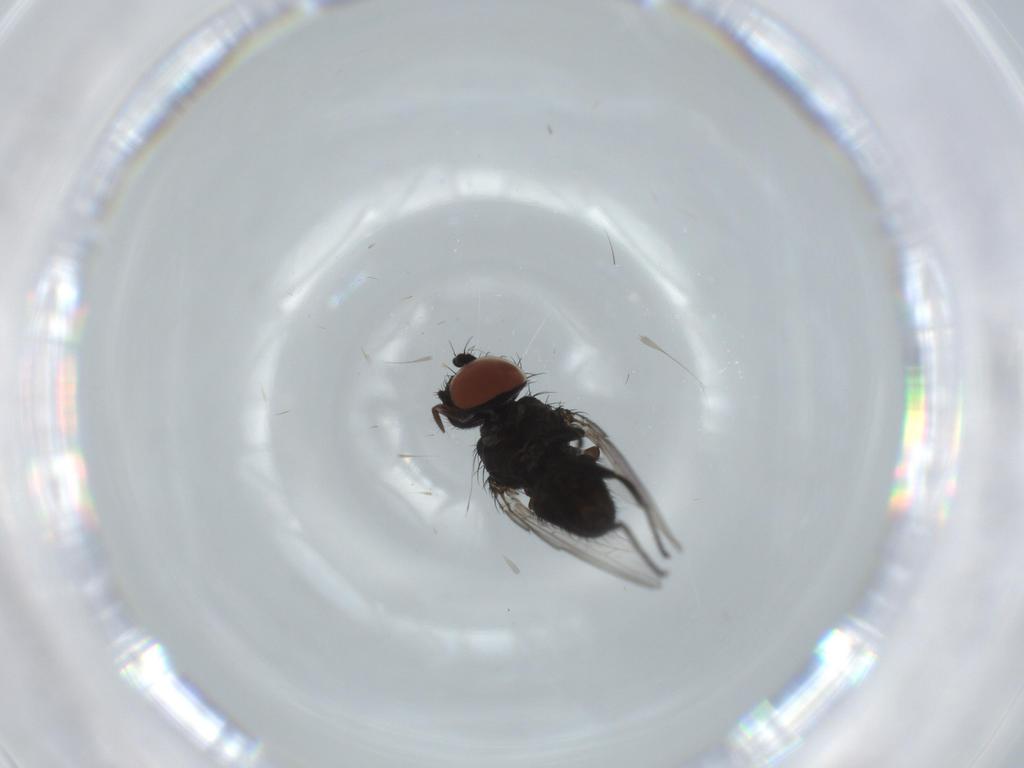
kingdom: Animalia
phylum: Arthropoda
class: Insecta
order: Diptera
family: Milichiidae
